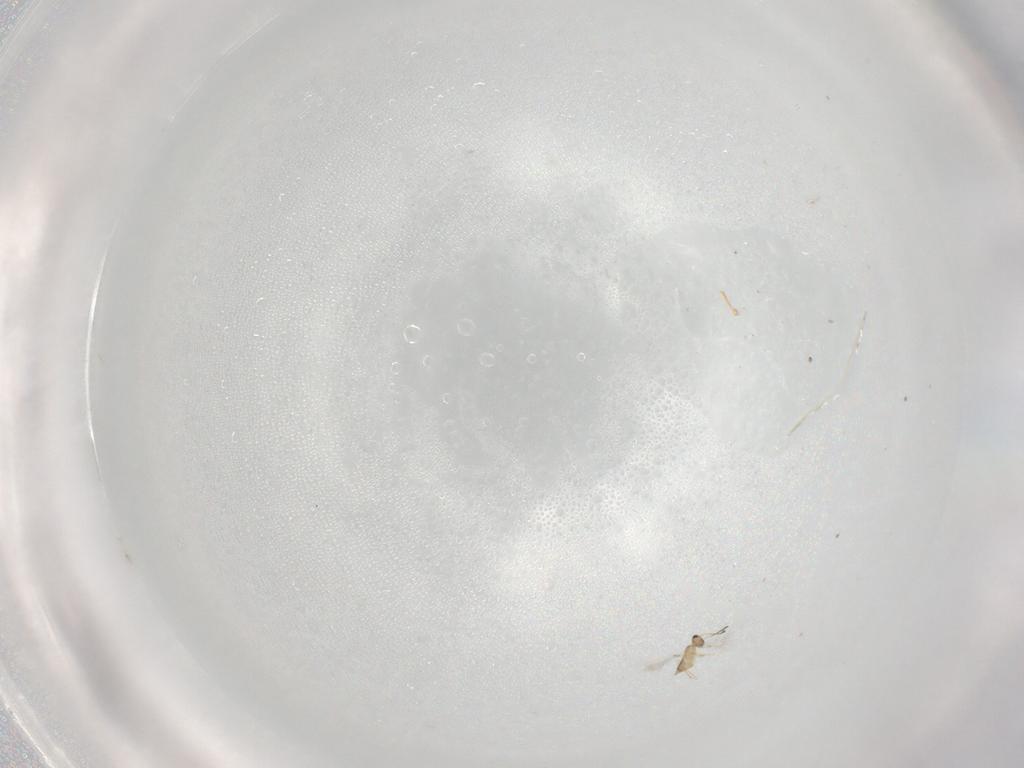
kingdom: Animalia
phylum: Arthropoda
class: Insecta
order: Hymenoptera
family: Mymaridae
